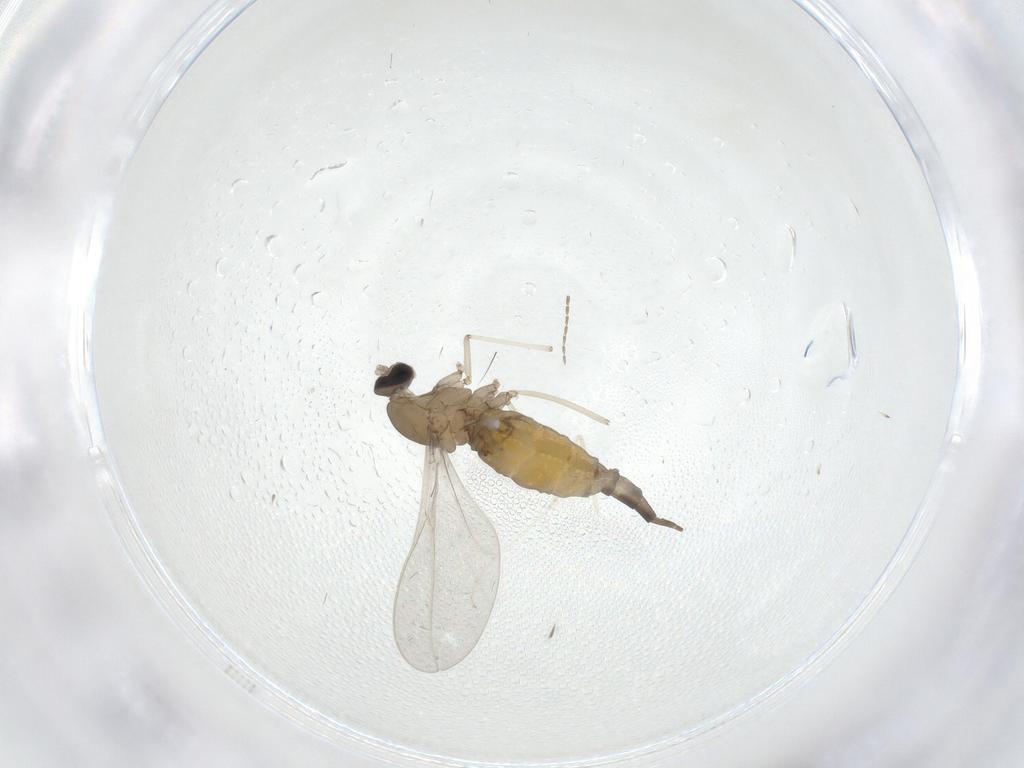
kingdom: Animalia
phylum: Arthropoda
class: Insecta
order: Diptera
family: Cecidomyiidae
